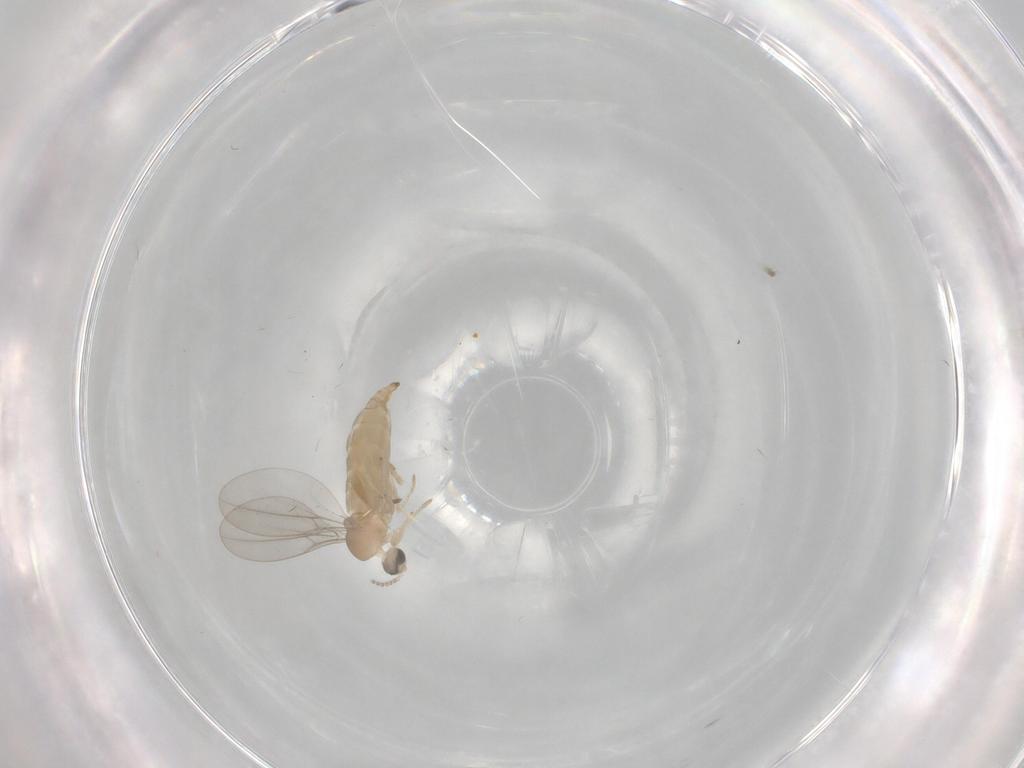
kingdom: Animalia
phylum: Arthropoda
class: Insecta
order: Diptera
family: Cecidomyiidae
